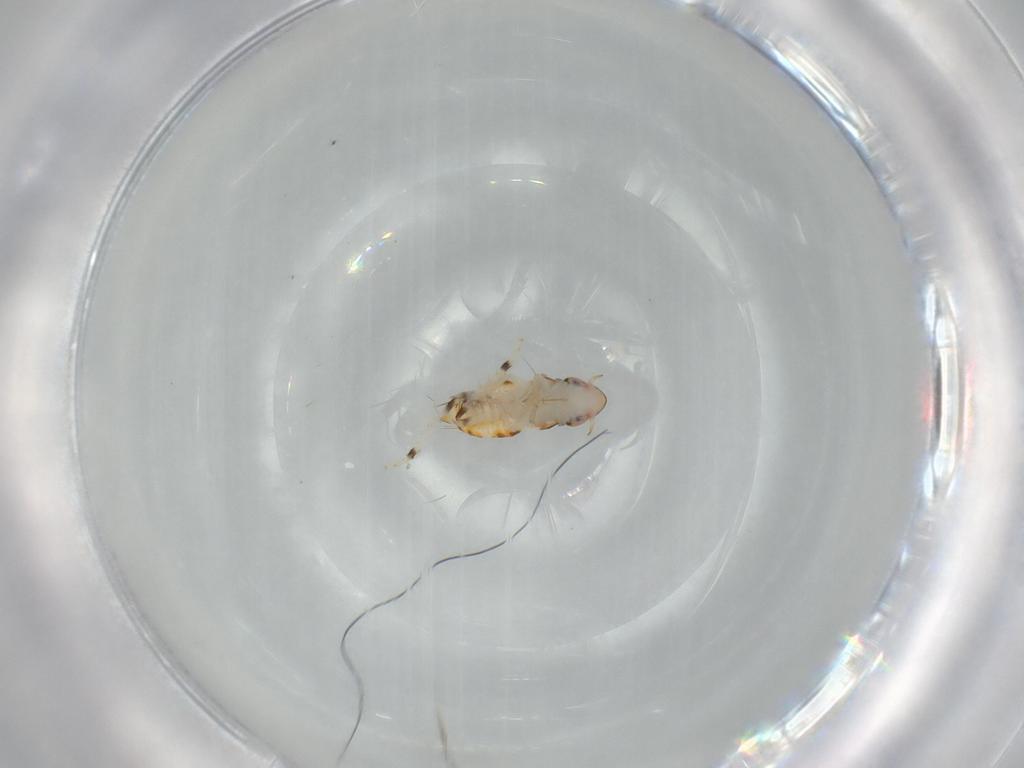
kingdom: Animalia
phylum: Arthropoda
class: Insecta
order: Hemiptera
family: Cicadellidae
